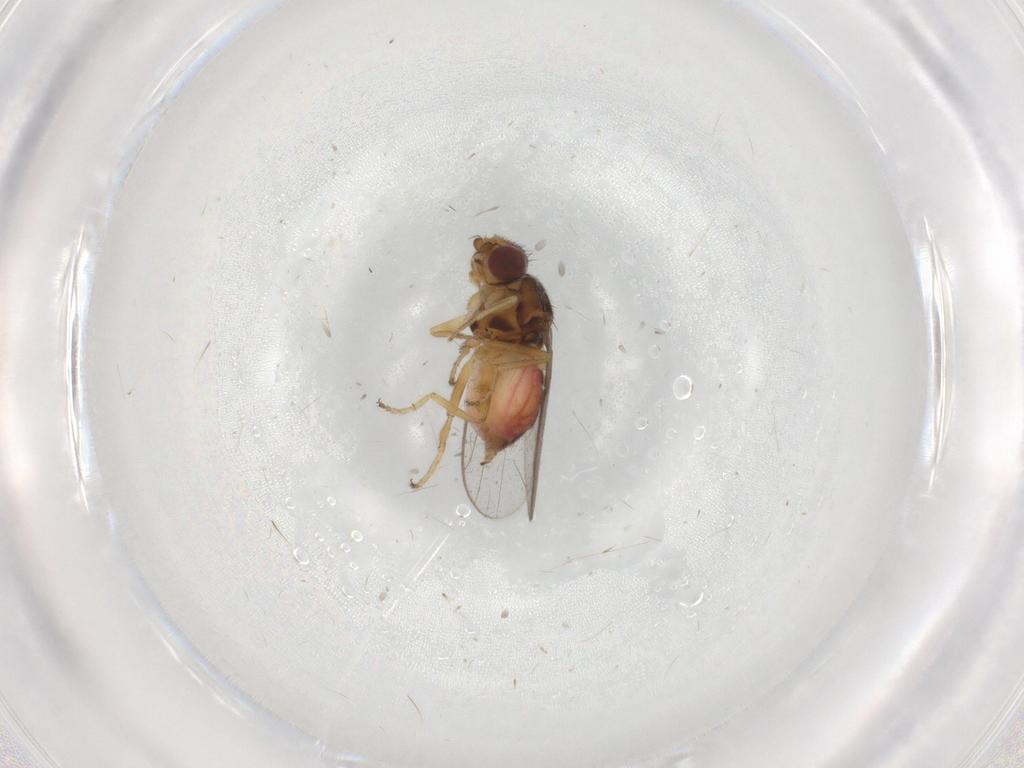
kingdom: Animalia
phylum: Arthropoda
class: Insecta
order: Diptera
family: Chloropidae
